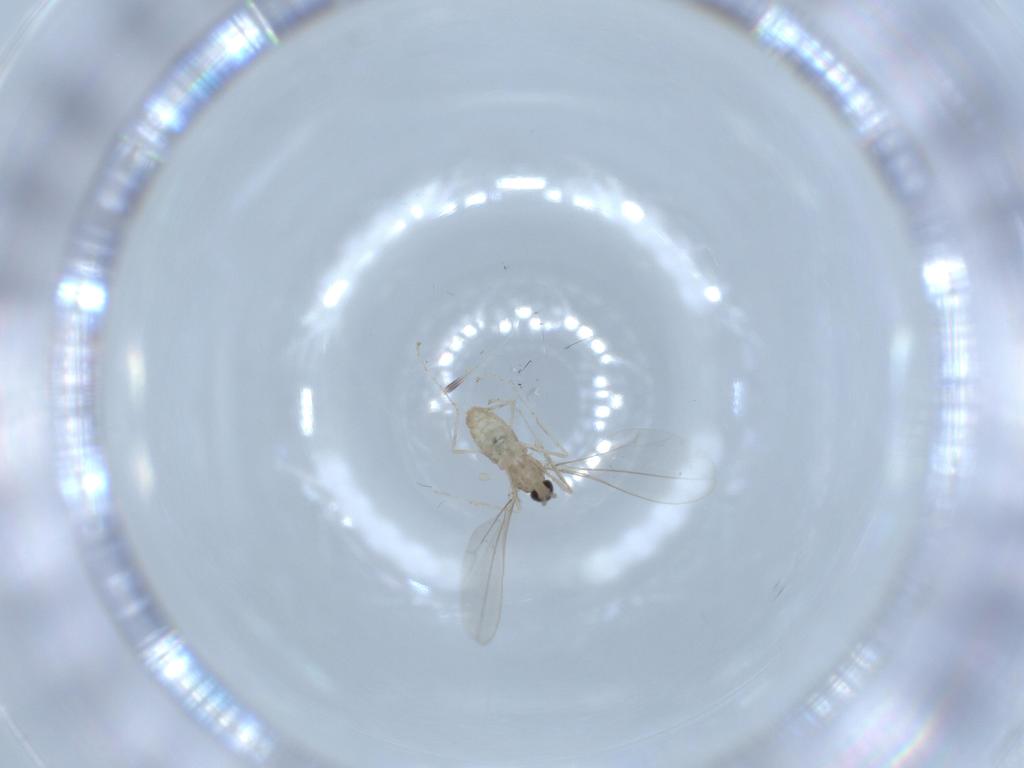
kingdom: Animalia
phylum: Arthropoda
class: Insecta
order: Diptera
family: Cecidomyiidae
